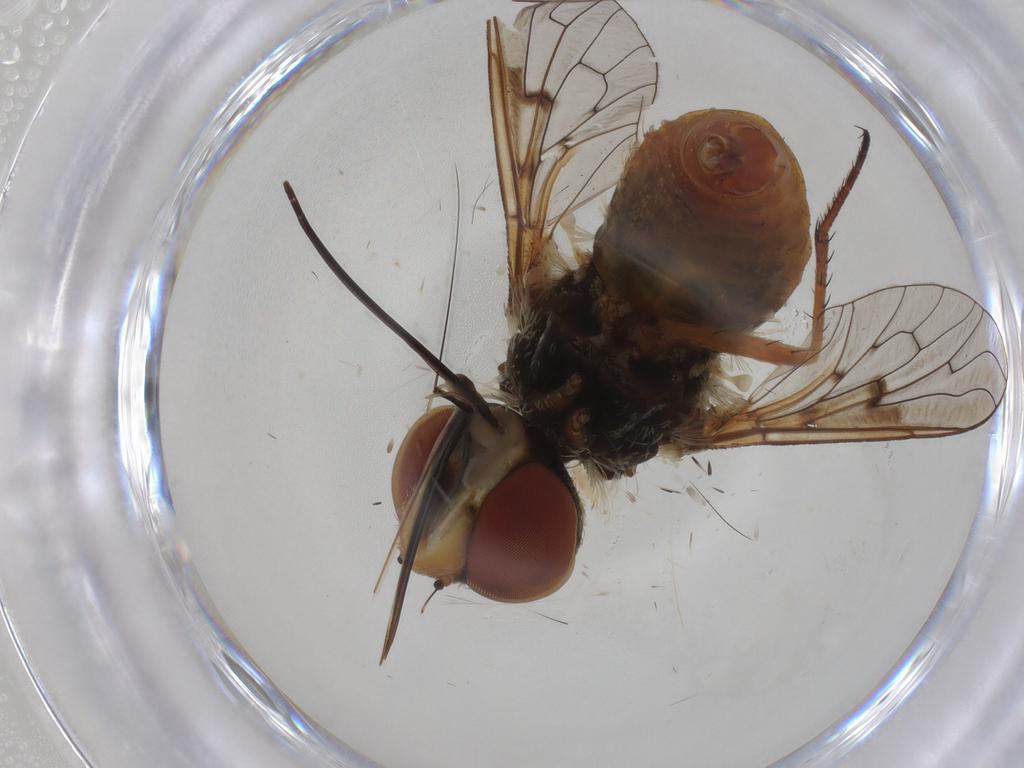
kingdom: Animalia
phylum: Arthropoda
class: Insecta
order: Diptera
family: Bombyliidae
